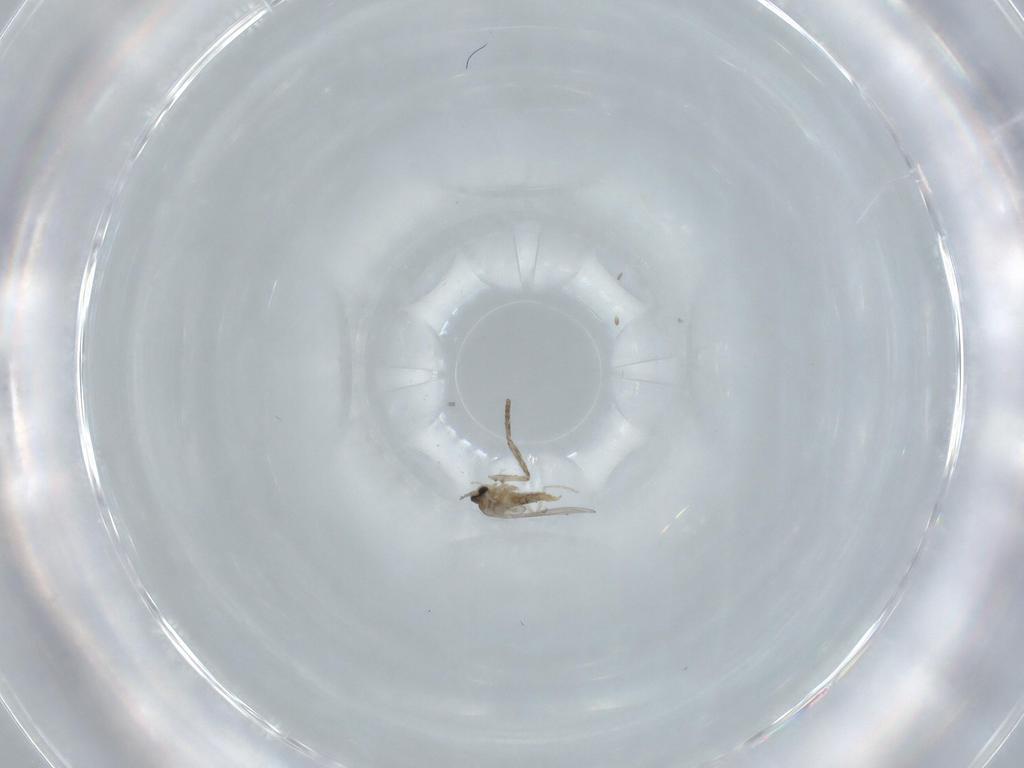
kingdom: Animalia
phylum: Arthropoda
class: Insecta
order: Diptera
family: Cecidomyiidae
